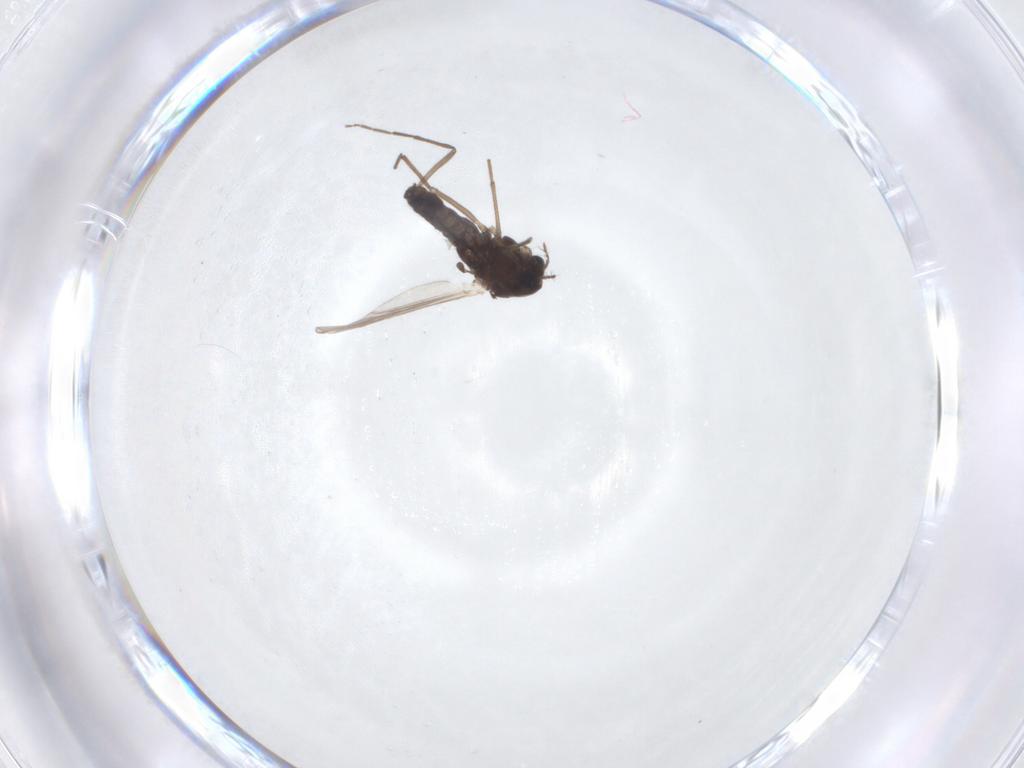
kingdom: Animalia
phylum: Arthropoda
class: Insecta
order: Diptera
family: Chironomidae
